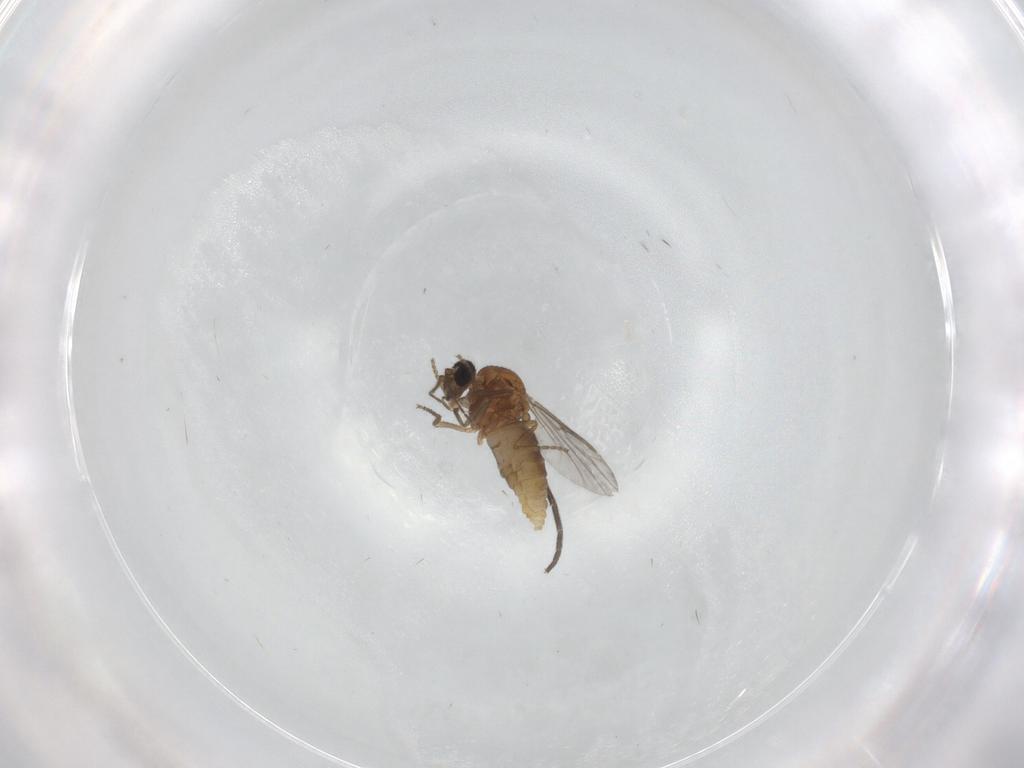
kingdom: Animalia
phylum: Arthropoda
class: Insecta
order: Diptera
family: Ceratopogonidae
